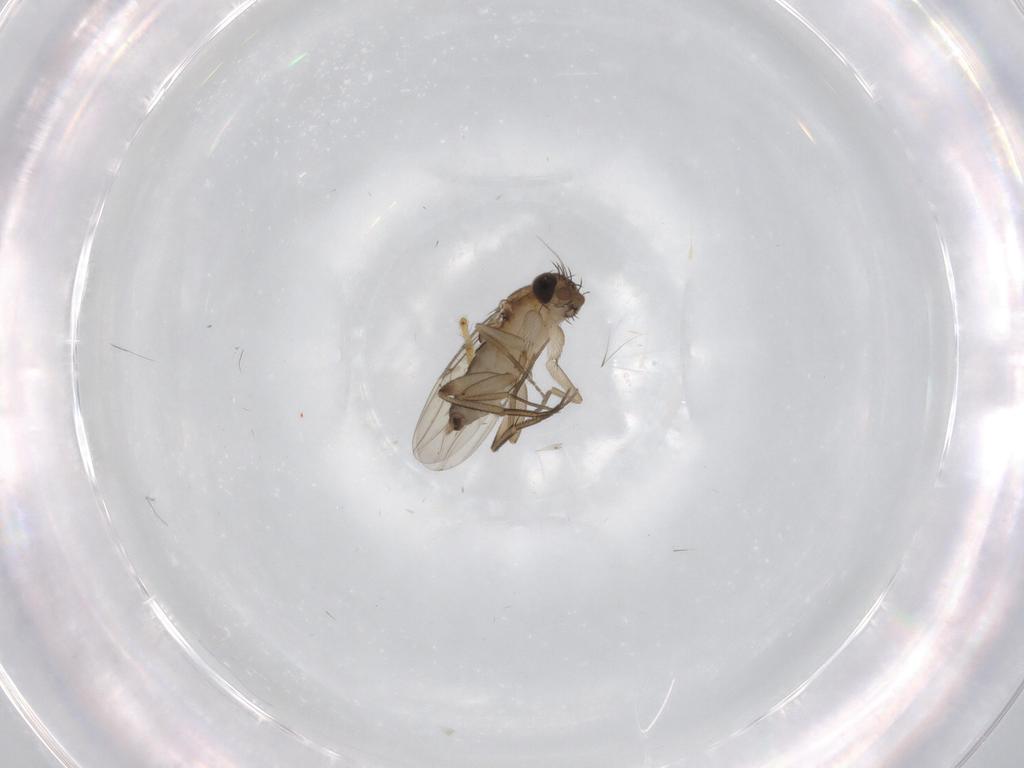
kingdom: Animalia
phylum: Arthropoda
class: Insecta
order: Diptera
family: Phoridae
